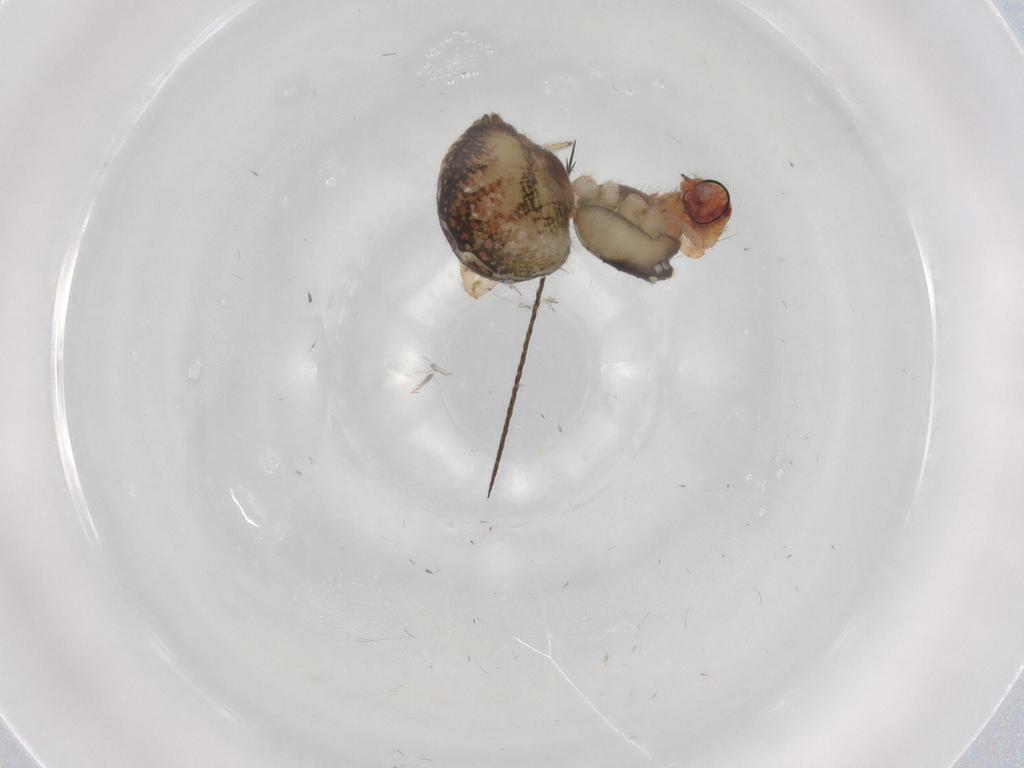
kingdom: Animalia
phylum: Arthropoda
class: Arachnida
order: Araneae
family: Theridiidae
